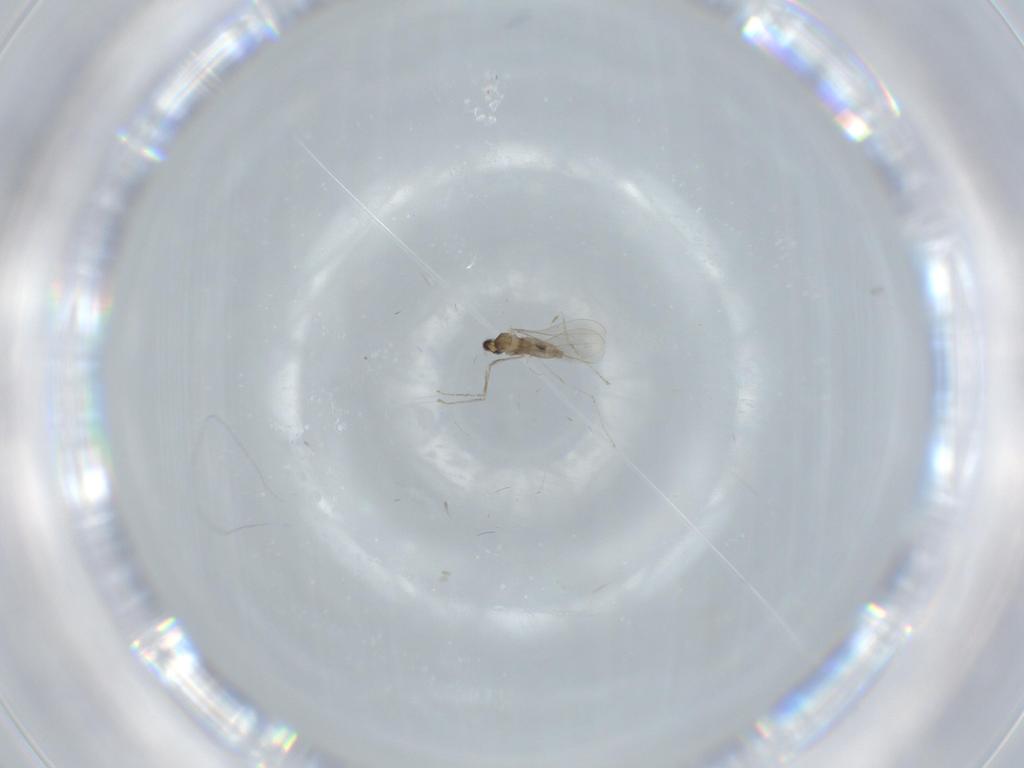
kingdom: Animalia
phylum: Arthropoda
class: Insecta
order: Diptera
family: Cecidomyiidae
